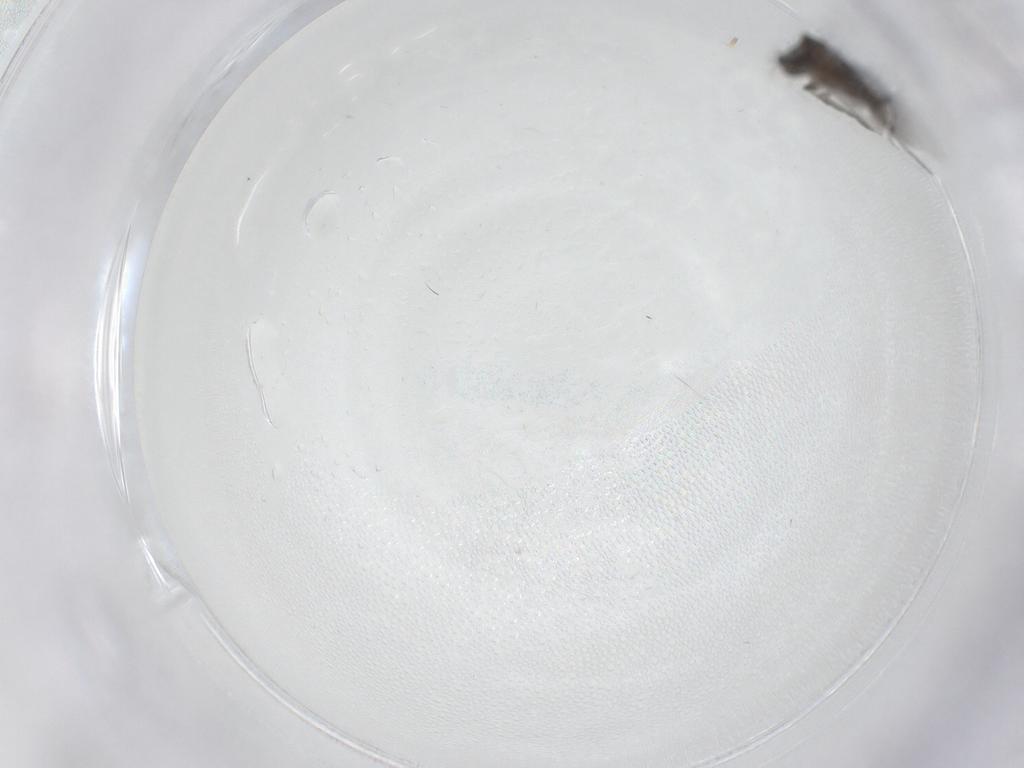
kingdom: Animalia
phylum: Arthropoda
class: Insecta
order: Diptera
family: Phoridae
